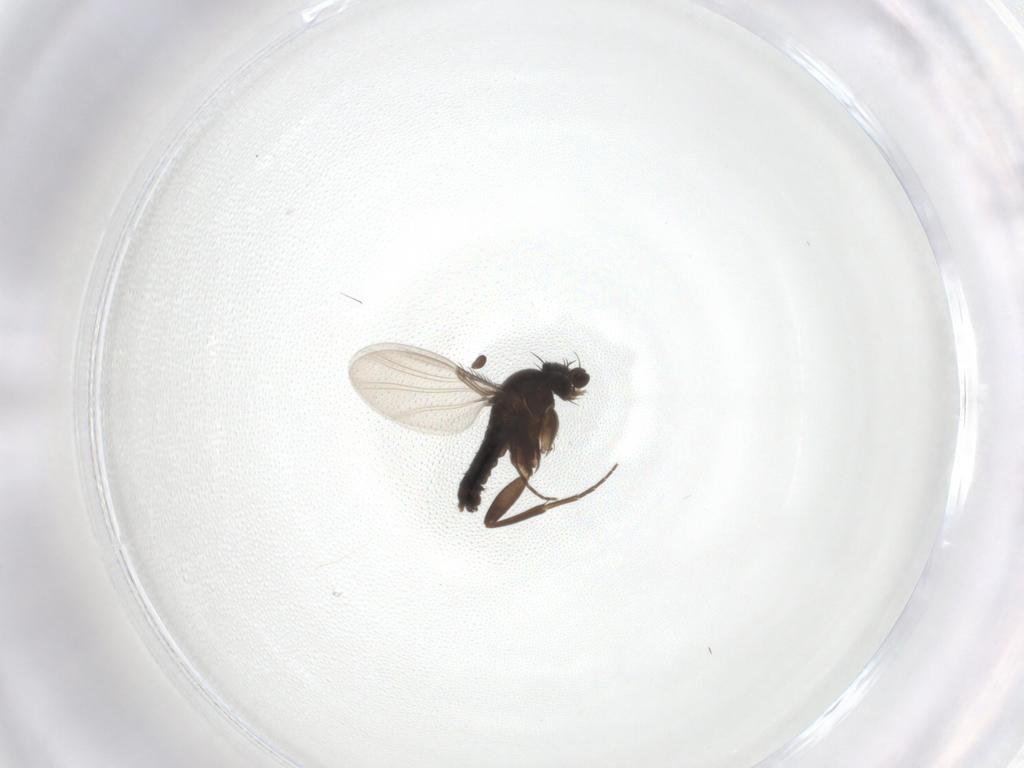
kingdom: Animalia
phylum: Arthropoda
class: Insecta
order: Diptera
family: Phoridae
